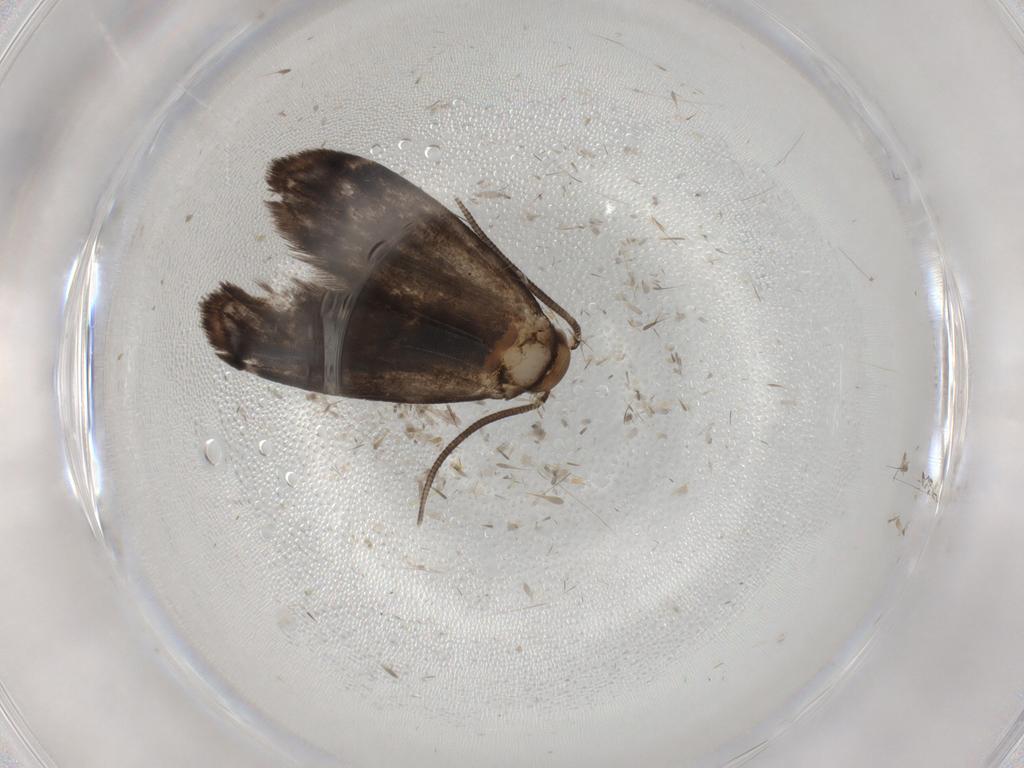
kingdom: Animalia
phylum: Arthropoda
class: Insecta
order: Lepidoptera
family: Dryadaulidae
